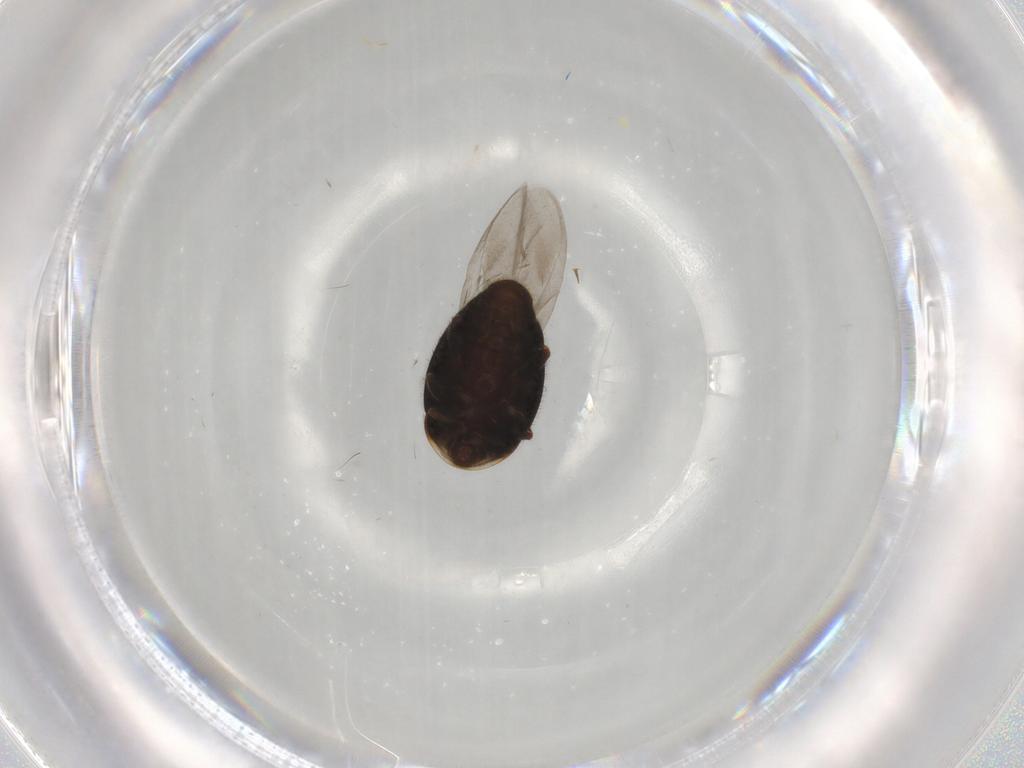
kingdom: Animalia
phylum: Arthropoda
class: Insecta
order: Coleoptera
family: Corylophidae
